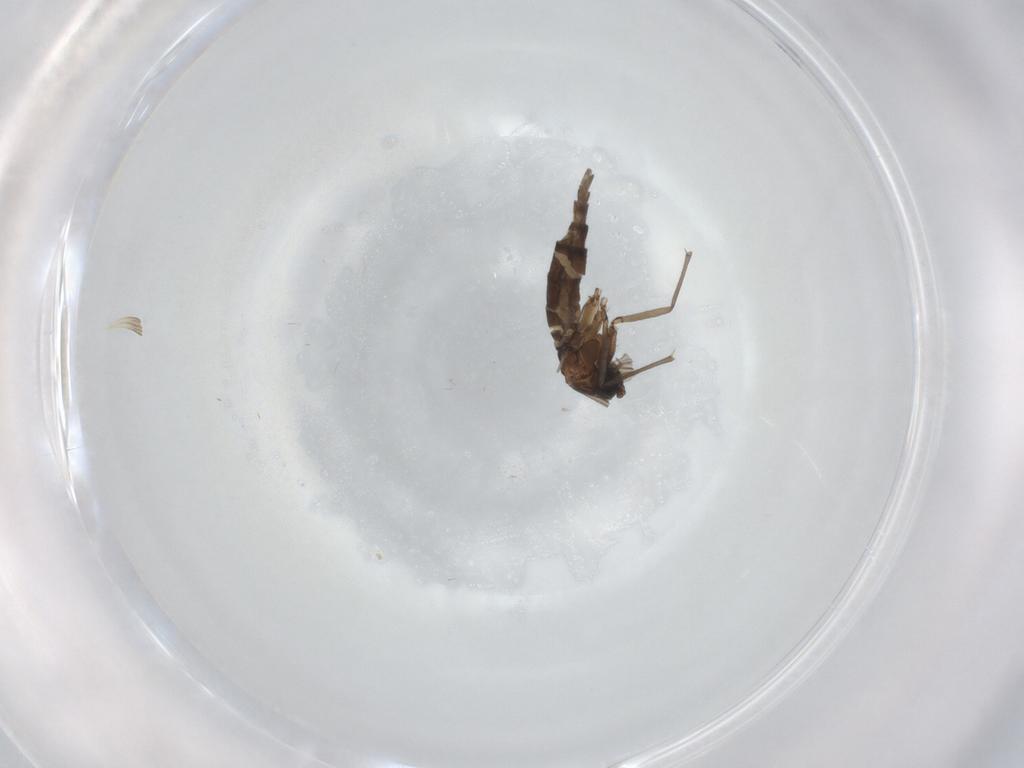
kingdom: Animalia
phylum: Arthropoda
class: Insecta
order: Diptera
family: Sciaridae
